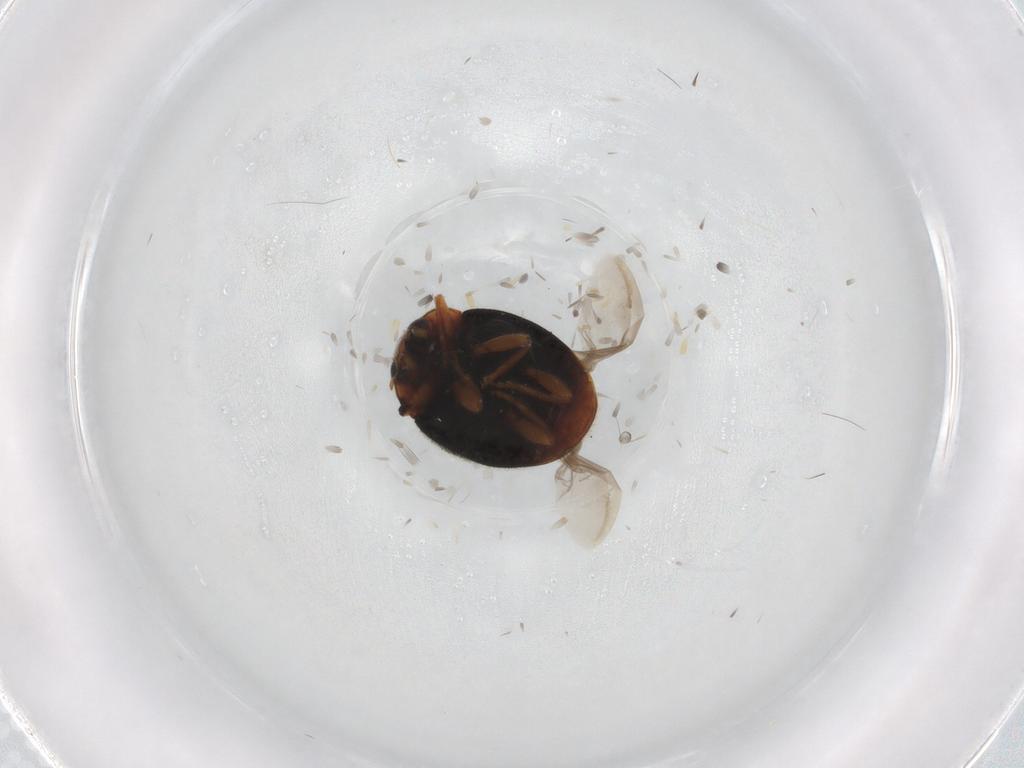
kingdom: Animalia
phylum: Arthropoda
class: Insecta
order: Coleoptera
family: Coccinellidae
